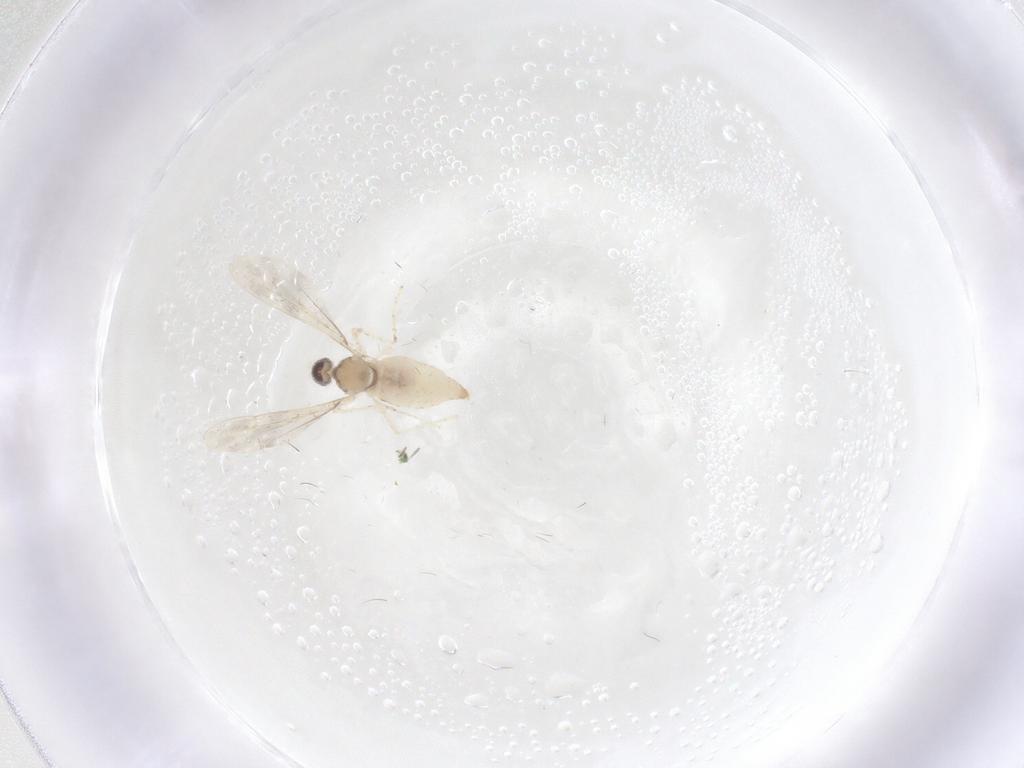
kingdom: Animalia
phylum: Arthropoda
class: Insecta
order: Diptera
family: Cecidomyiidae
